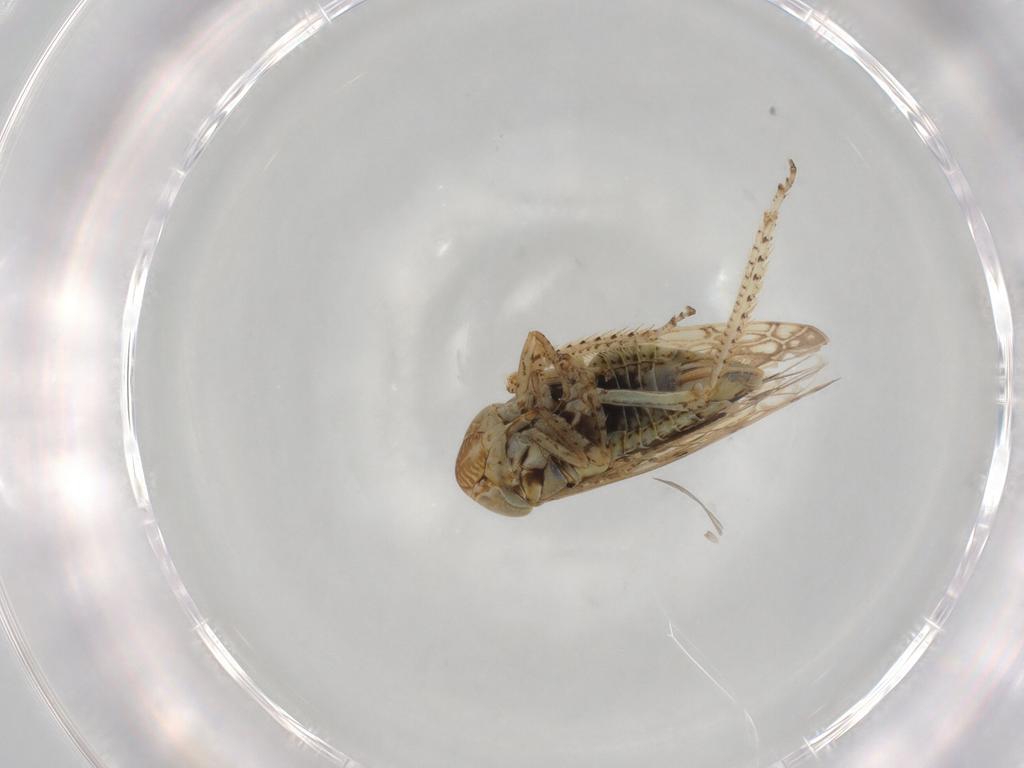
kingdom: Animalia
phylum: Arthropoda
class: Insecta
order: Hemiptera
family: Cicadellidae
